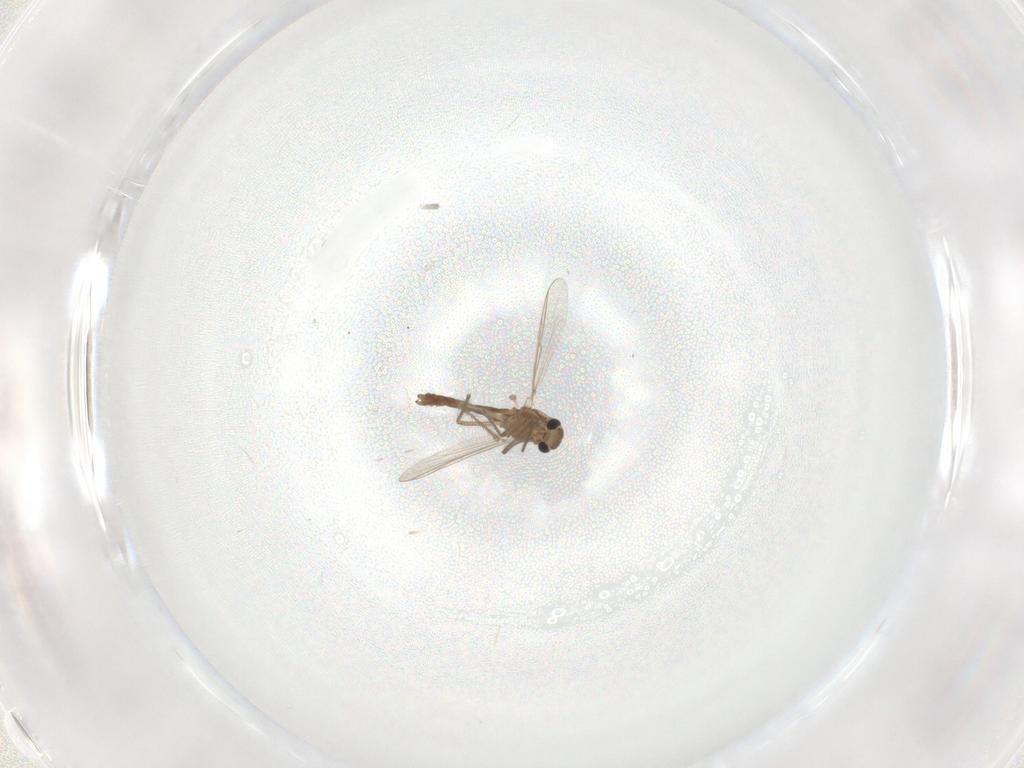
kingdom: Animalia
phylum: Arthropoda
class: Insecta
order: Diptera
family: Chironomidae
